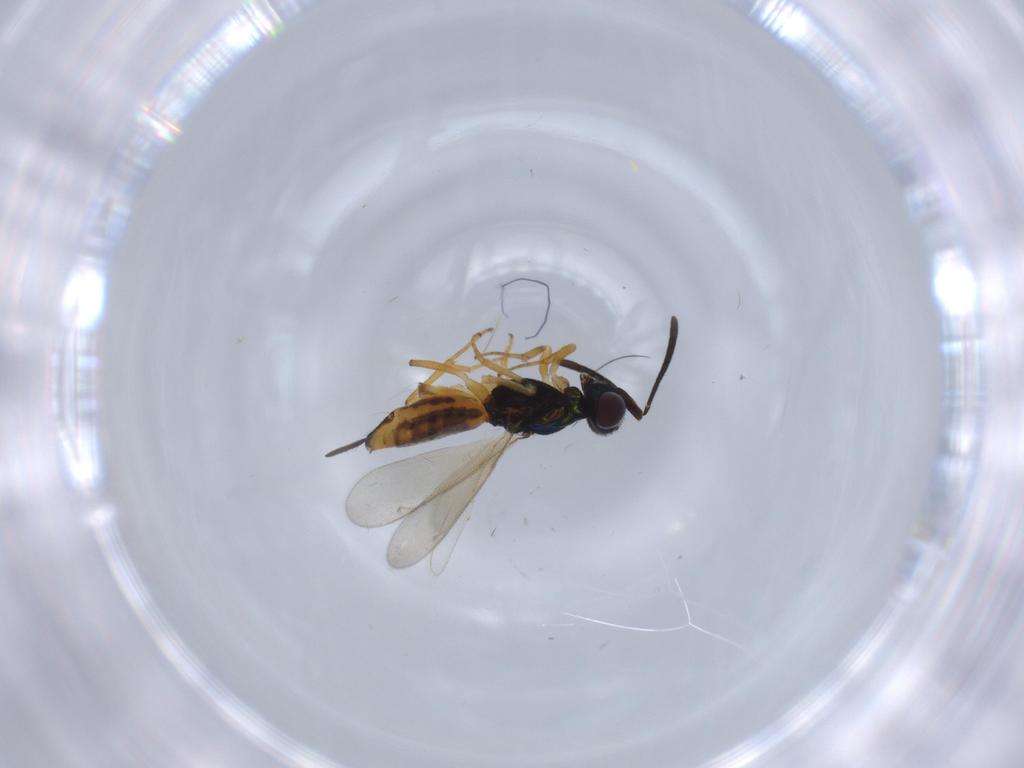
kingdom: Animalia
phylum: Arthropoda
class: Insecta
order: Hymenoptera
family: Eupelmidae
